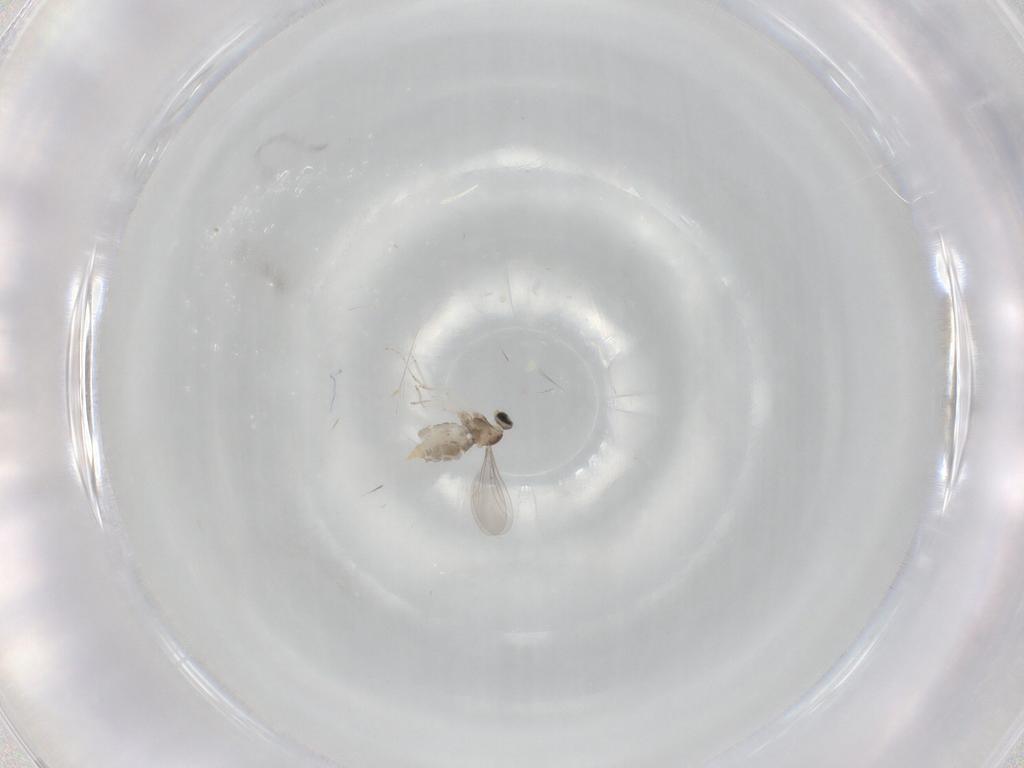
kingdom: Animalia
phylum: Arthropoda
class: Insecta
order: Diptera
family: Cecidomyiidae
